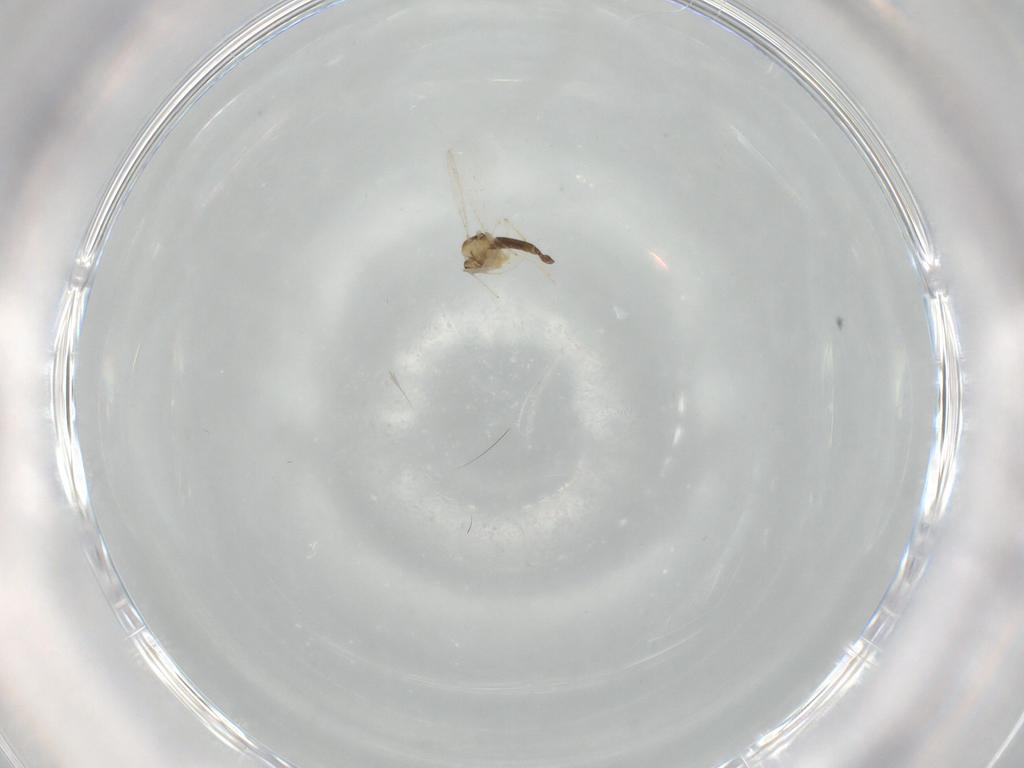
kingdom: Animalia
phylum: Arthropoda
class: Insecta
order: Diptera
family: Chironomidae
